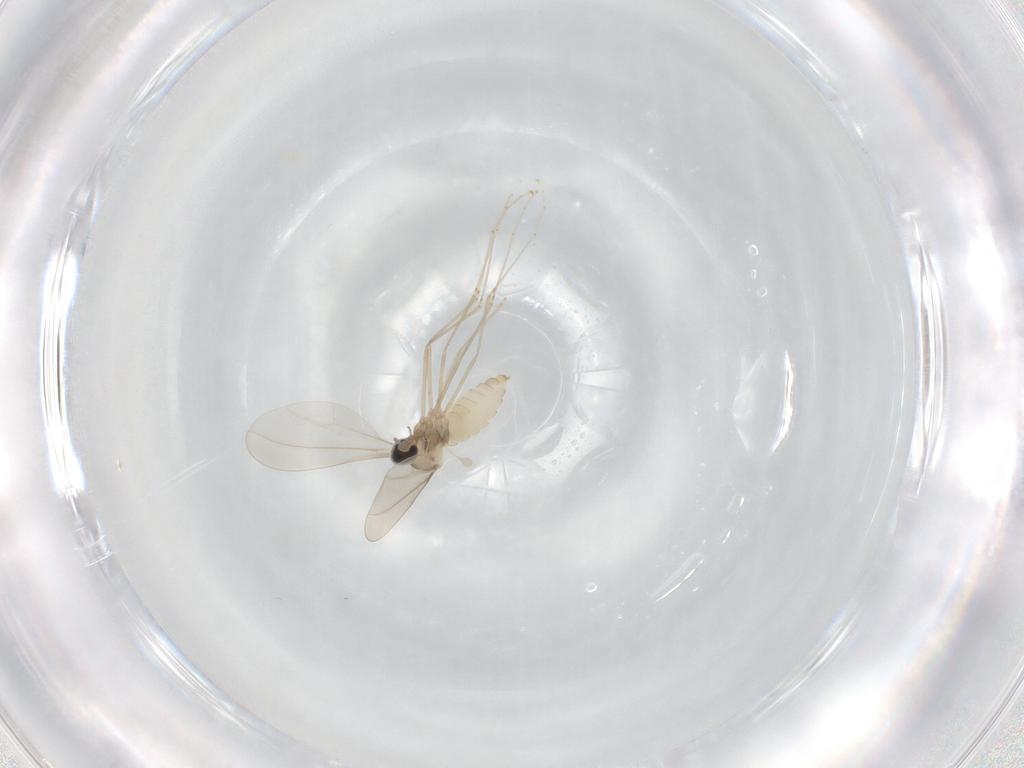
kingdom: Animalia
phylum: Arthropoda
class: Insecta
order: Diptera
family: Cecidomyiidae
